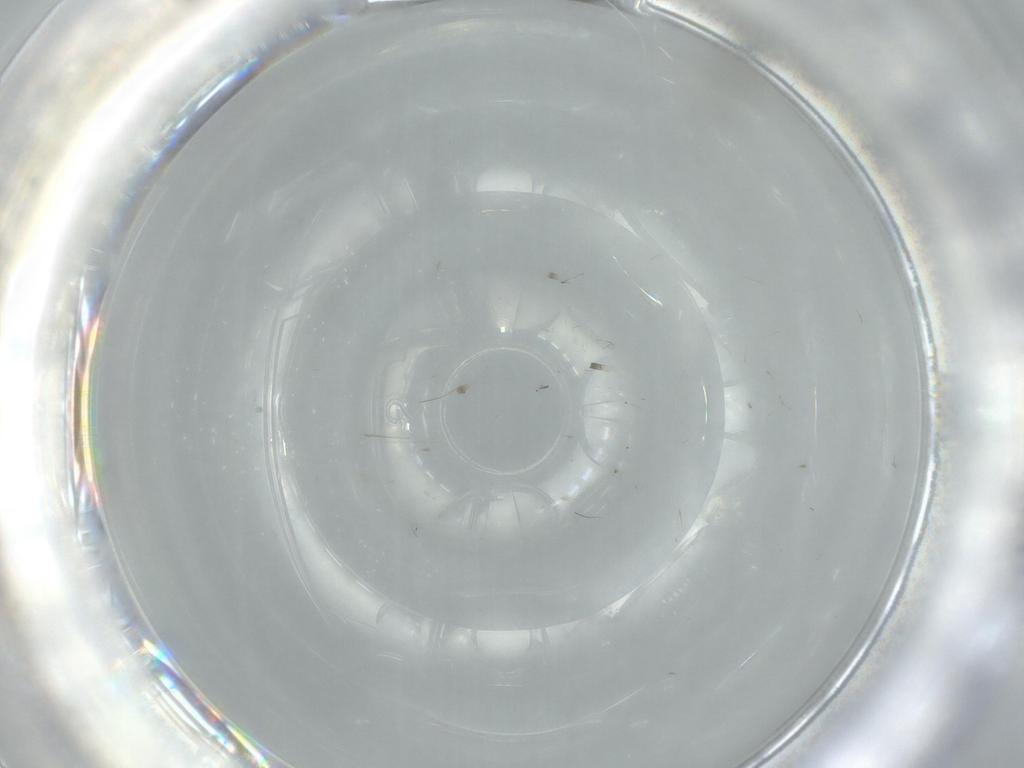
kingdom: Animalia
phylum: Arthropoda
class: Insecta
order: Diptera
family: Cecidomyiidae
